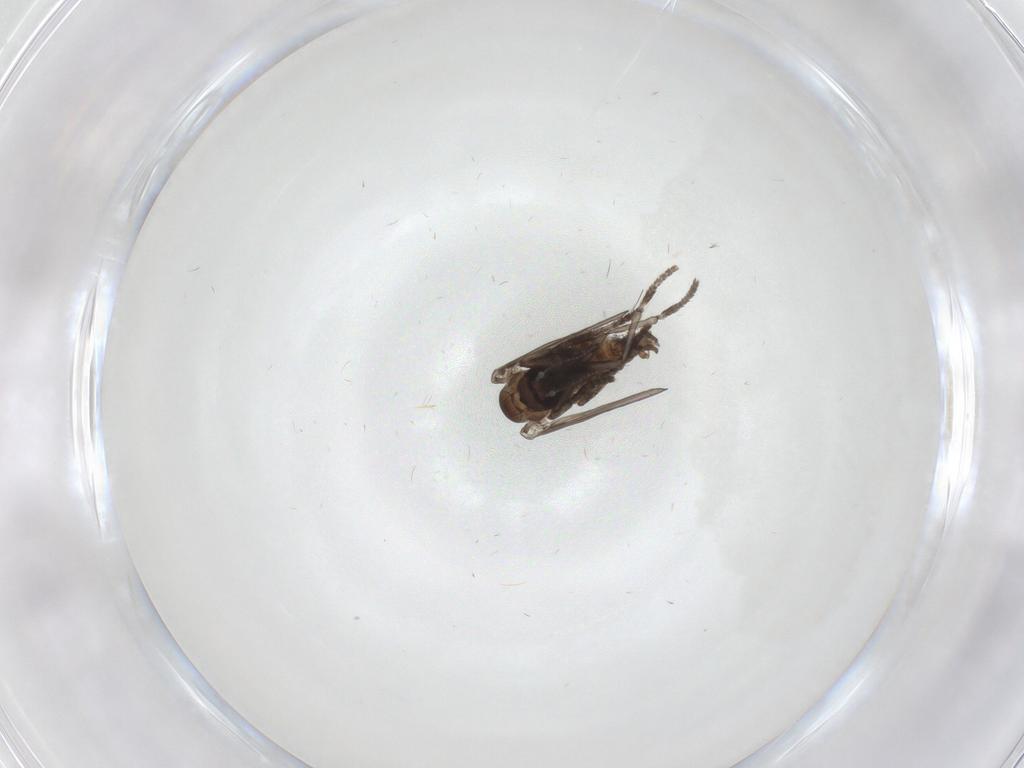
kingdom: Animalia
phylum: Arthropoda
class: Insecta
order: Diptera
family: Psychodidae
